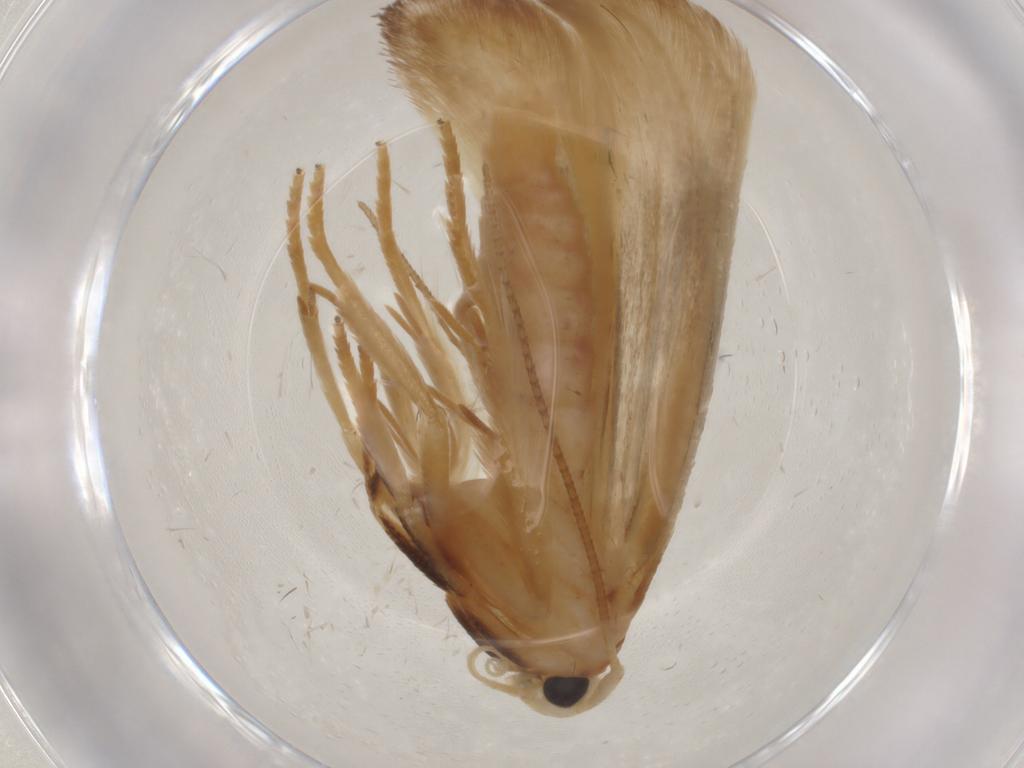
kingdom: Animalia
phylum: Arthropoda
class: Insecta
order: Lepidoptera
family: Geometridae
